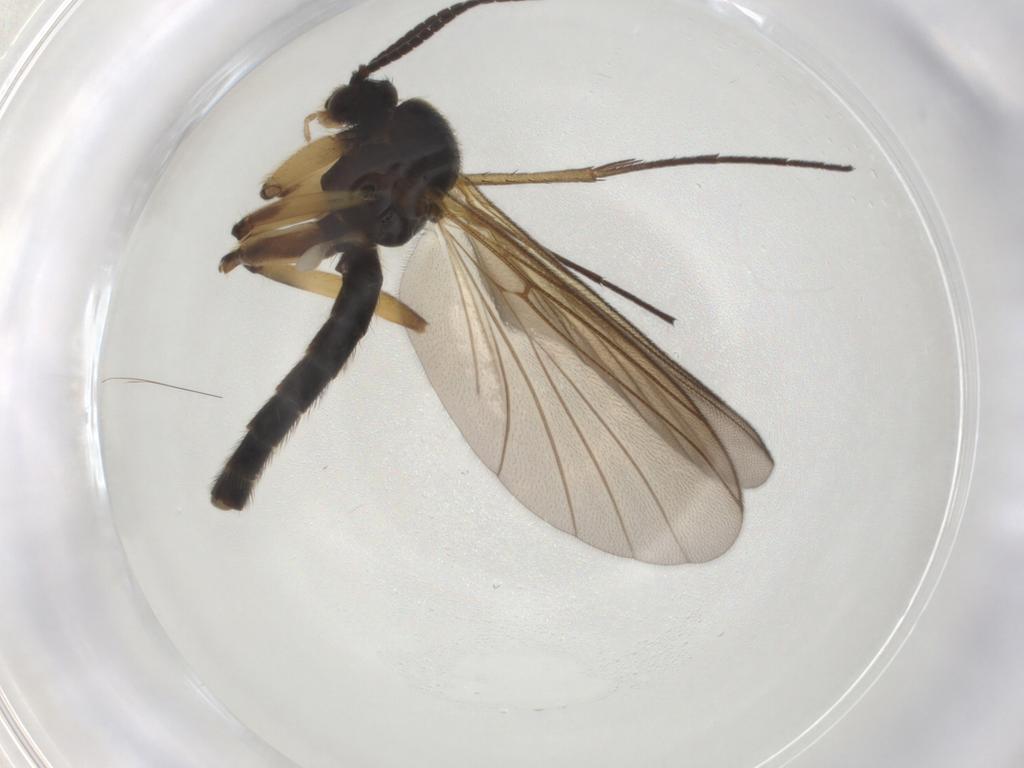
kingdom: Animalia
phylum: Arthropoda
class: Insecta
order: Diptera
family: Mycetophilidae
